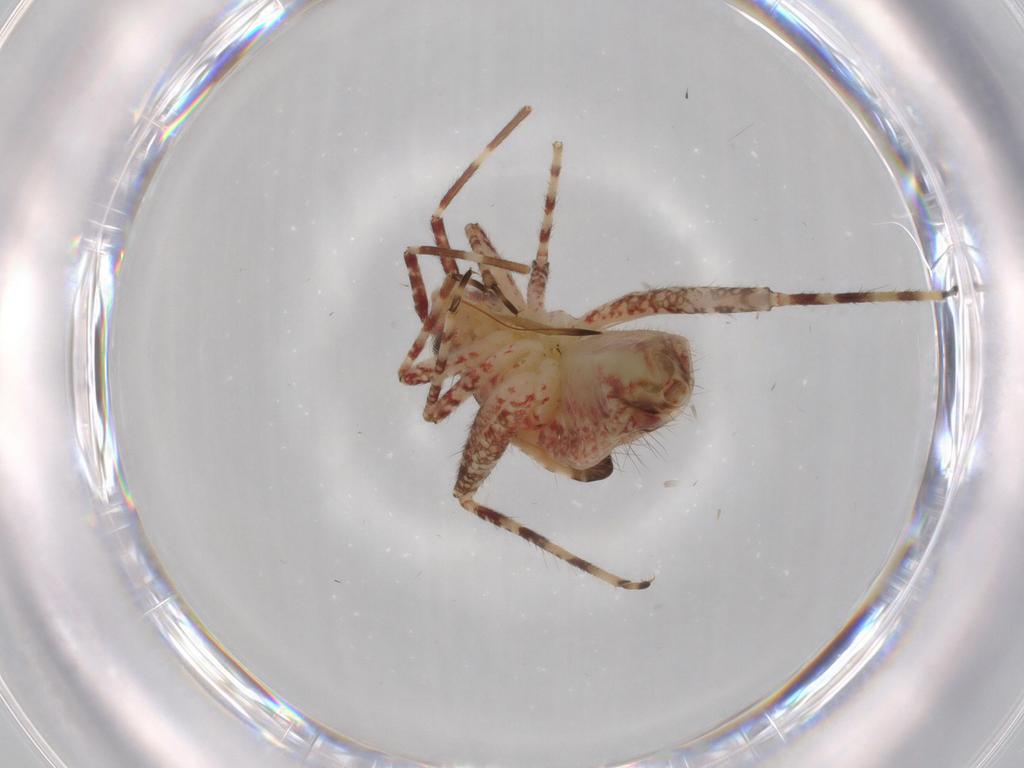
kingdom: Animalia
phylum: Arthropoda
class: Insecta
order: Hemiptera
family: Miridae
